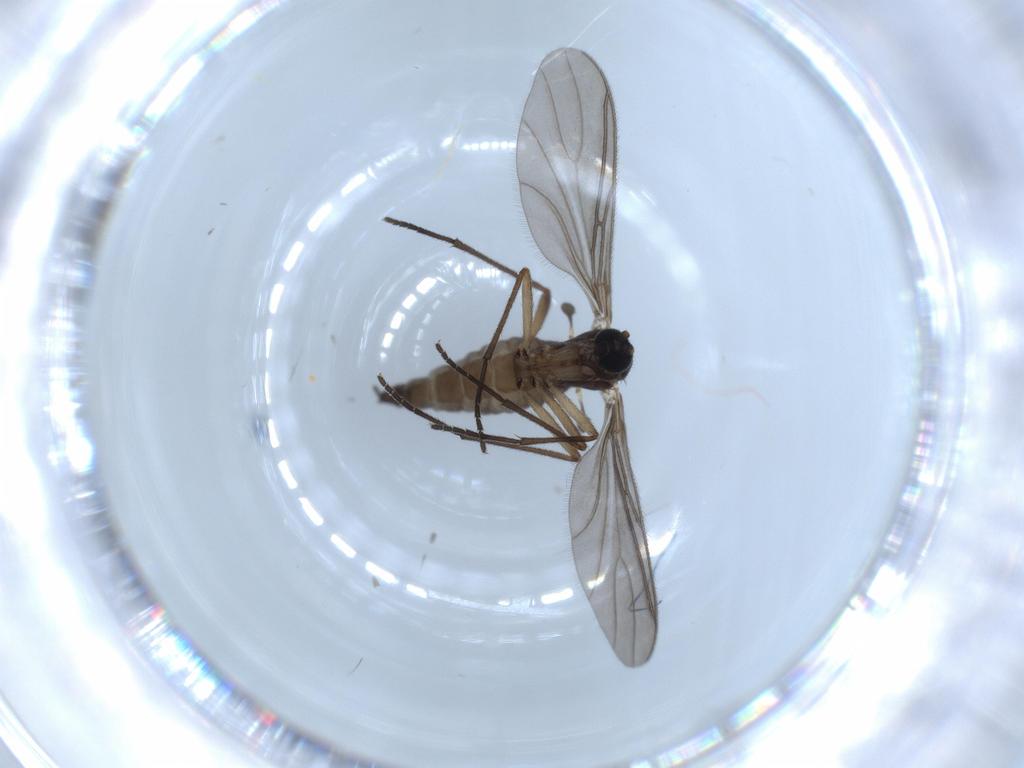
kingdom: Animalia
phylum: Arthropoda
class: Insecta
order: Diptera
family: Sciaridae
